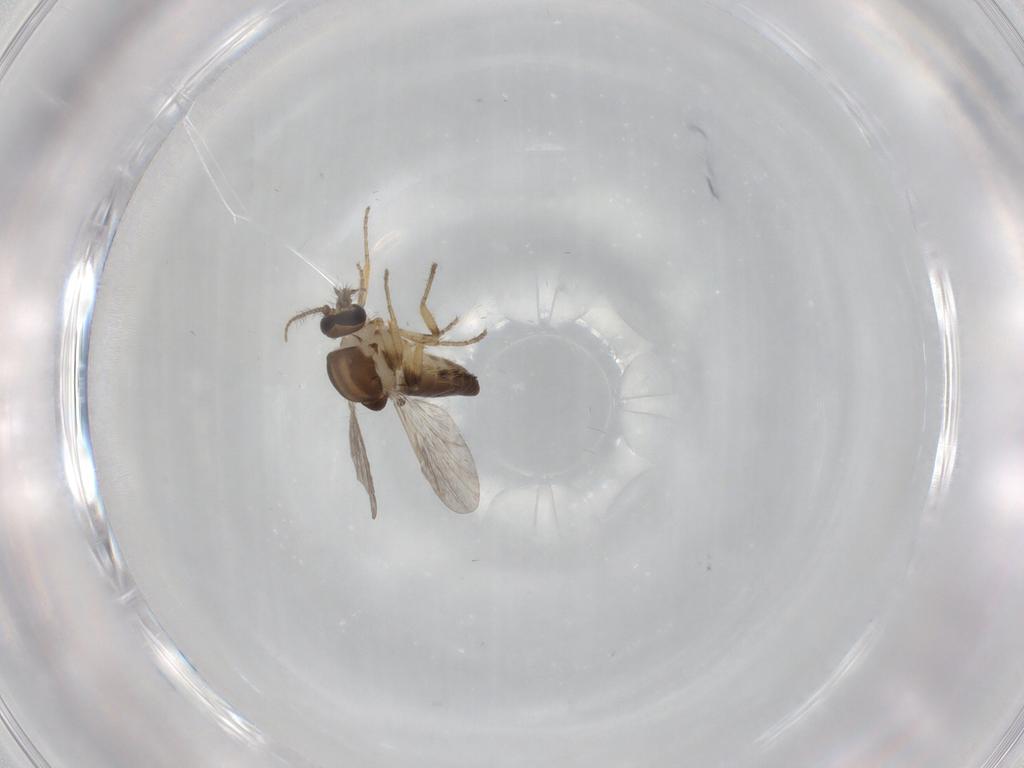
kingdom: Animalia
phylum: Arthropoda
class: Insecta
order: Diptera
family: Ceratopogonidae
